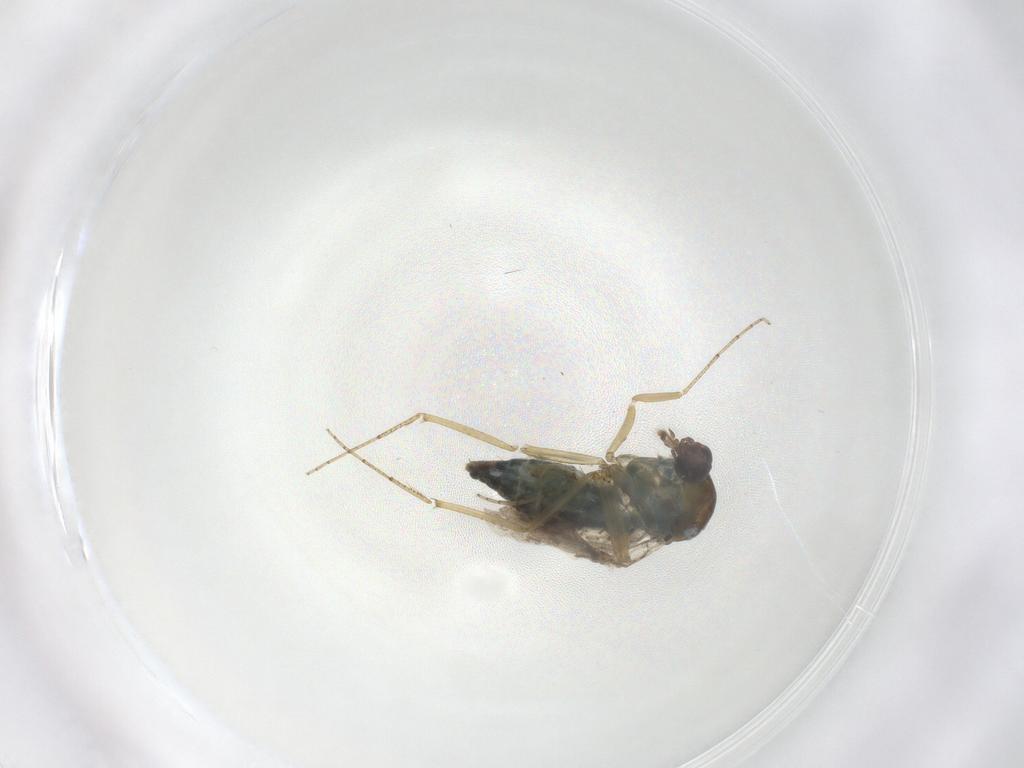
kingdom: Animalia
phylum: Arthropoda
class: Insecta
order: Diptera
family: Ceratopogonidae
